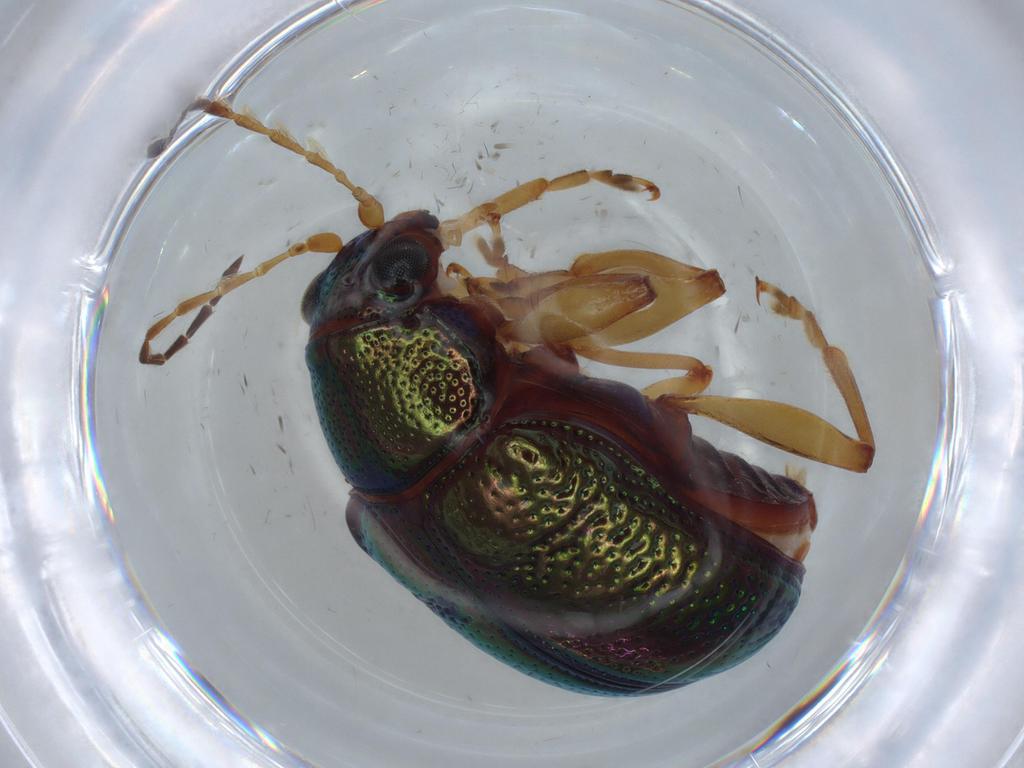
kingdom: Animalia
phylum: Arthropoda
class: Insecta
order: Coleoptera
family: Chrysomelidae
